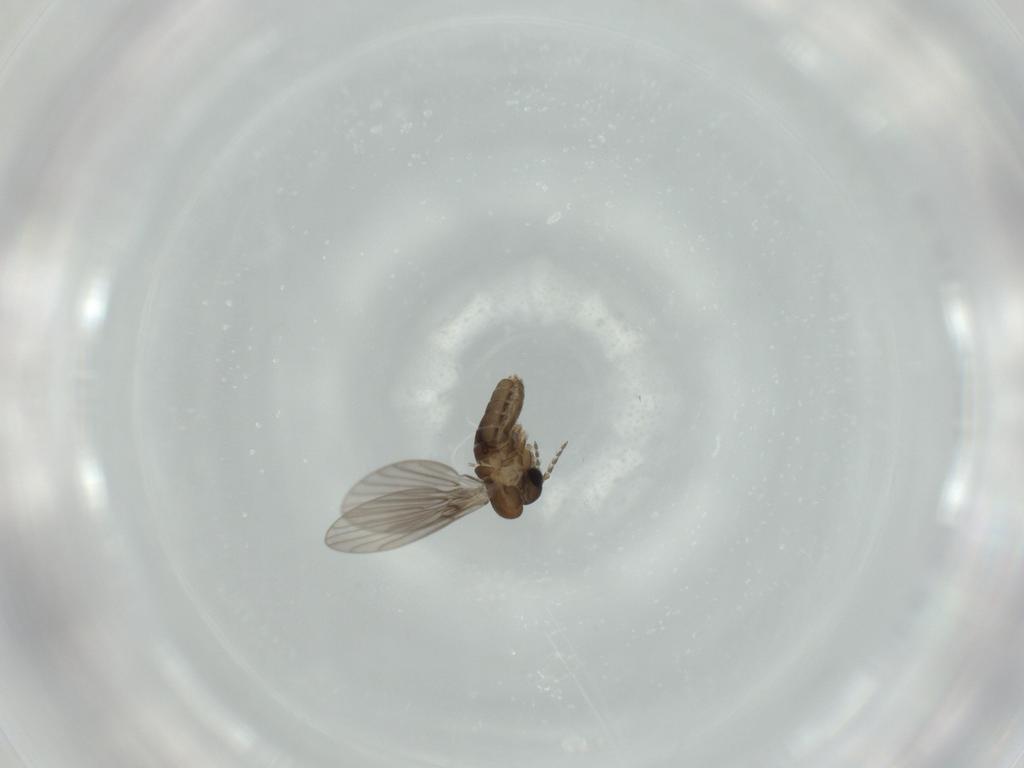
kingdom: Animalia
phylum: Arthropoda
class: Insecta
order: Diptera
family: Psychodidae
